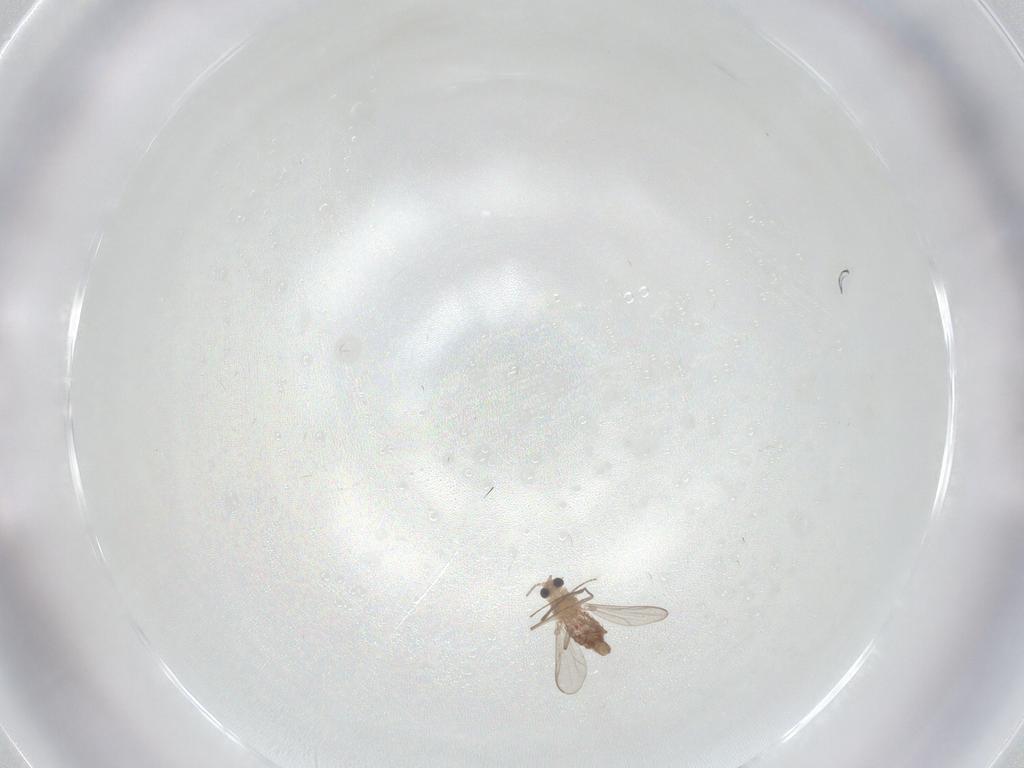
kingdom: Animalia
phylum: Arthropoda
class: Insecta
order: Diptera
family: Chironomidae
